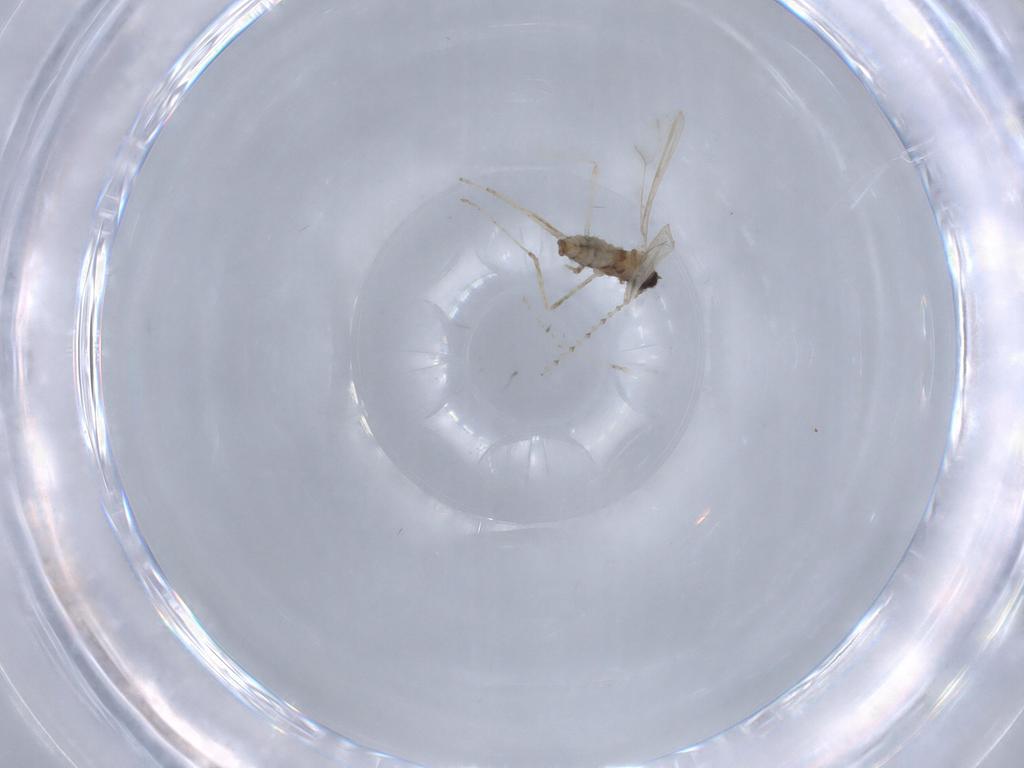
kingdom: Animalia
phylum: Arthropoda
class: Insecta
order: Diptera
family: Cecidomyiidae
